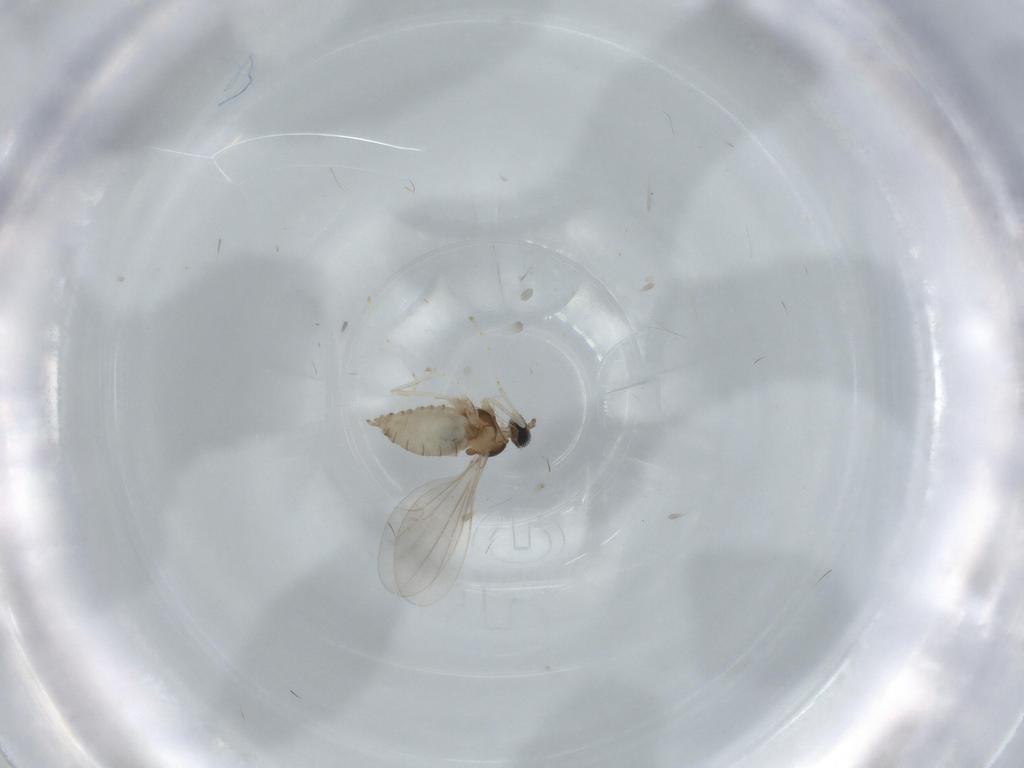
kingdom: Animalia
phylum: Arthropoda
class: Insecta
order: Diptera
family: Cecidomyiidae
